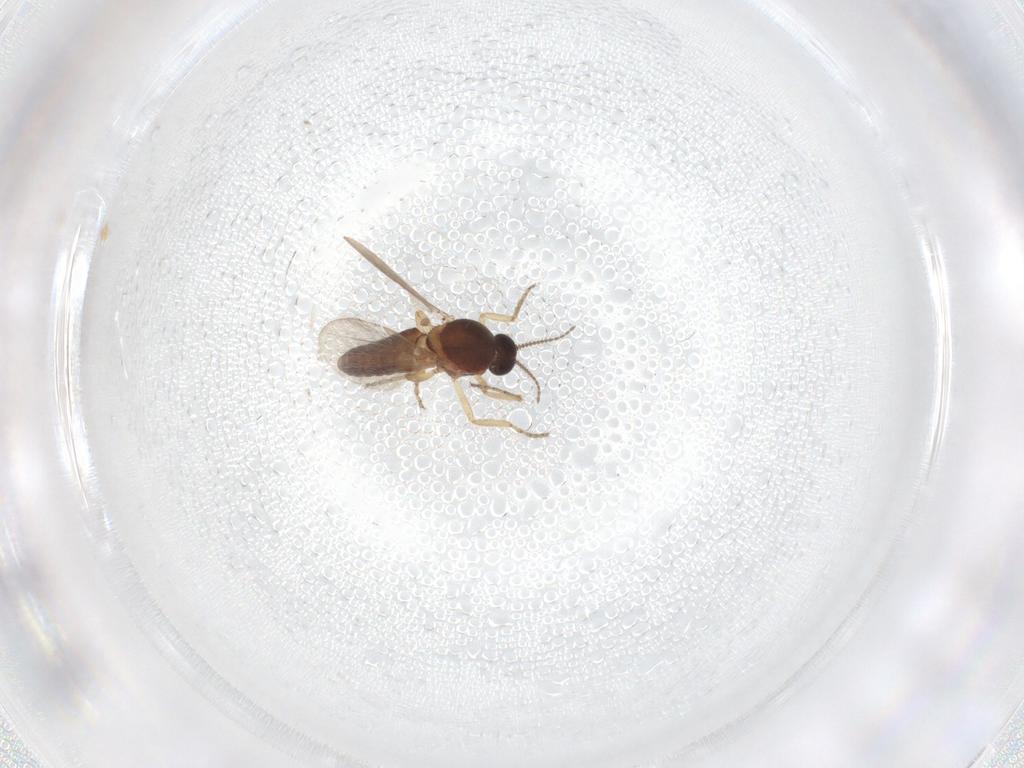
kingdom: Animalia
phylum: Arthropoda
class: Insecta
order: Diptera
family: Ceratopogonidae
